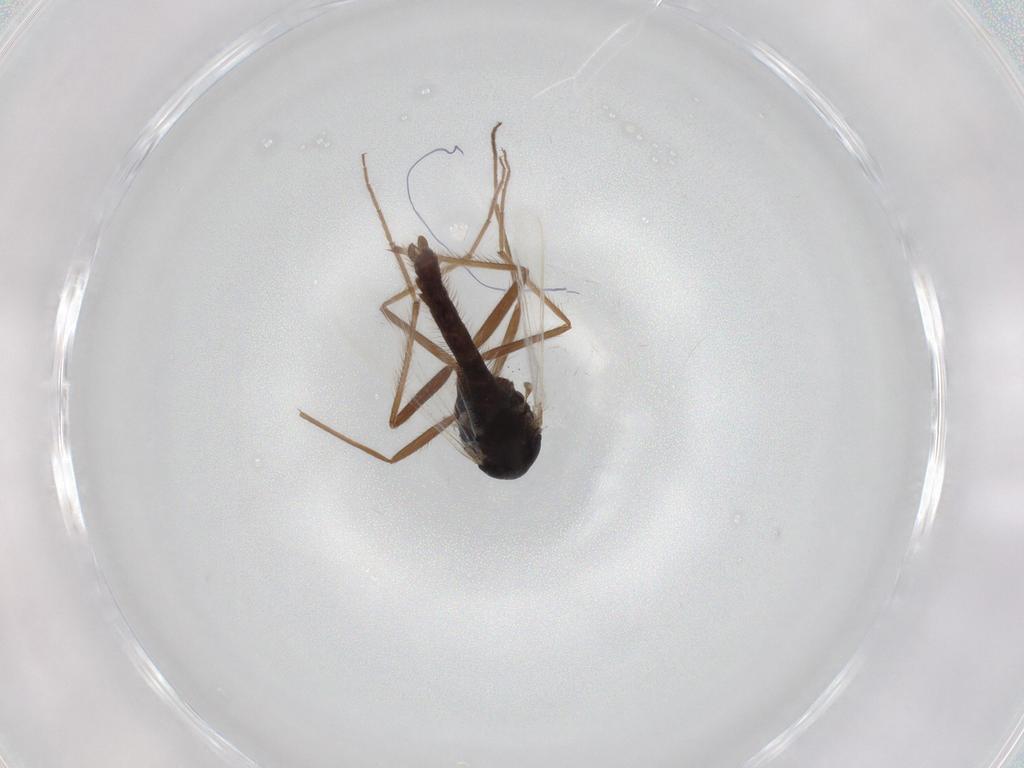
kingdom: Animalia
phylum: Arthropoda
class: Insecta
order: Diptera
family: Hybotidae
